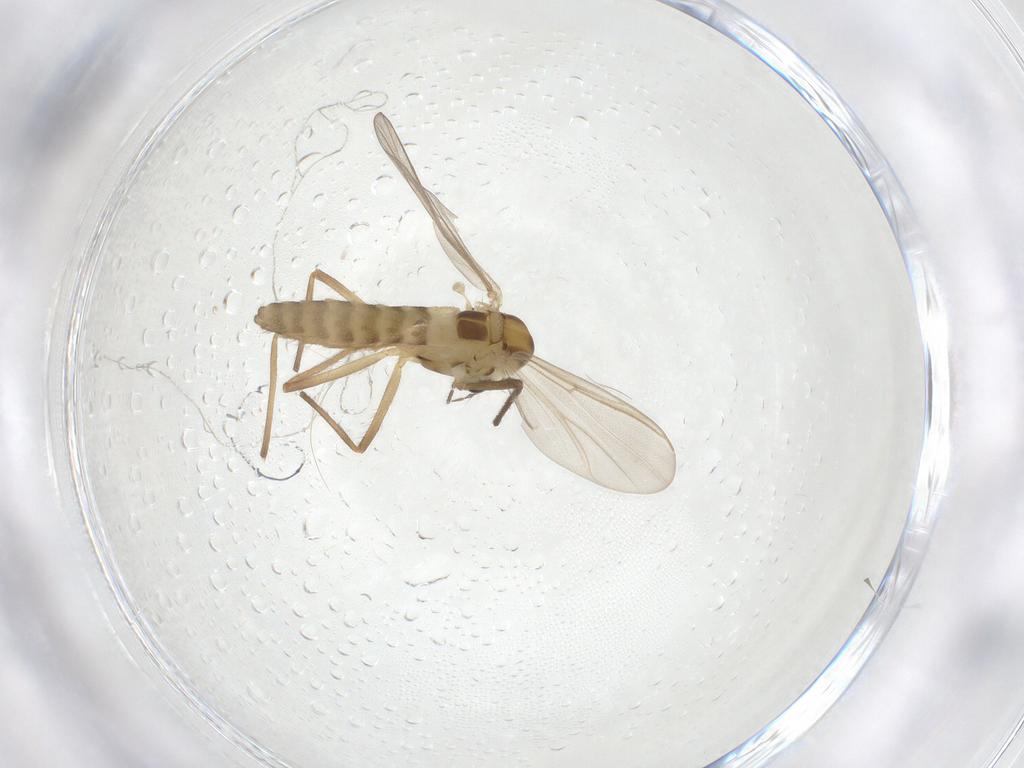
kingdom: Animalia
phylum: Arthropoda
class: Insecta
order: Diptera
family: Chironomidae
